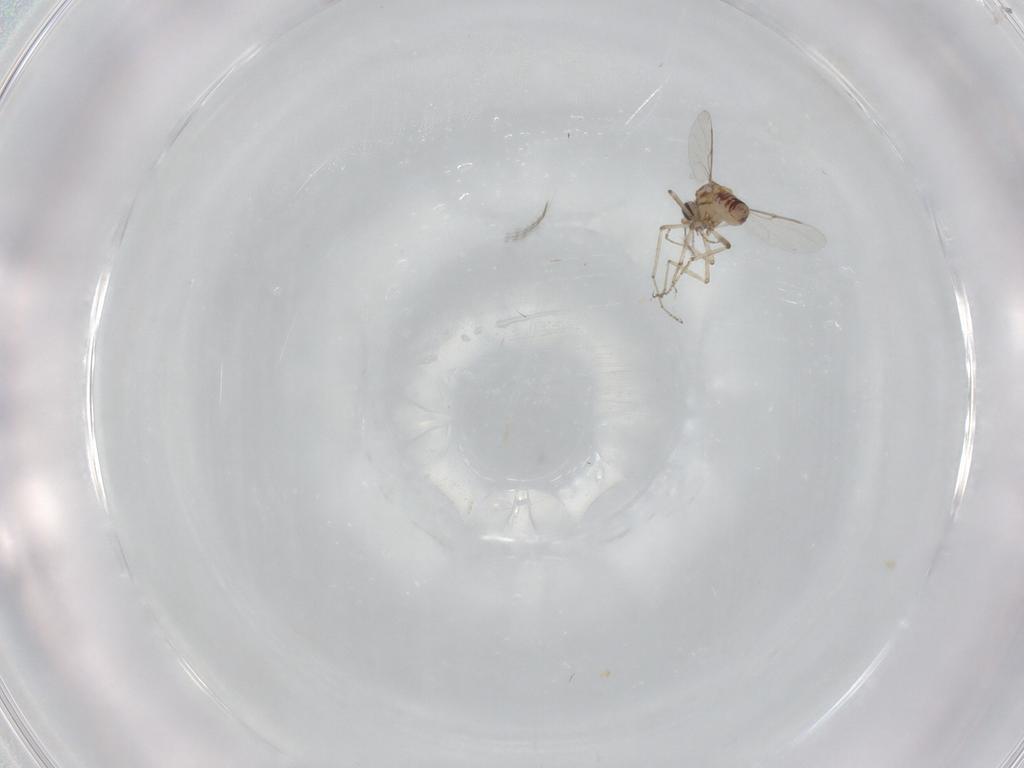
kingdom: Animalia
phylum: Arthropoda
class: Insecta
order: Diptera
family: Ceratopogonidae
